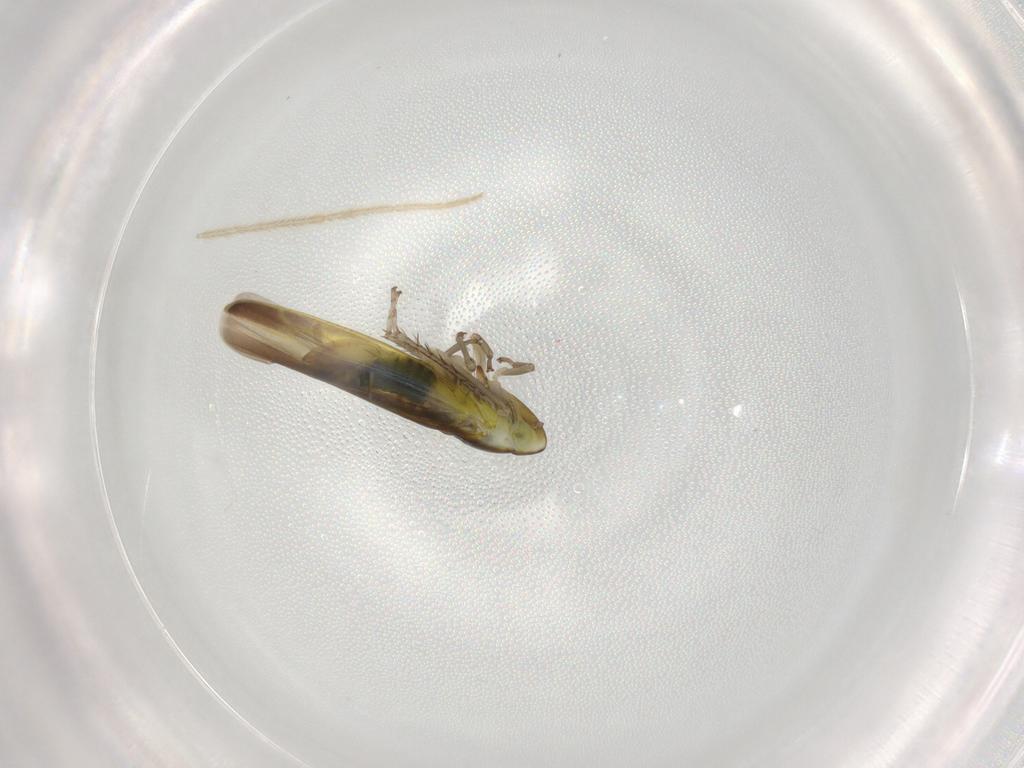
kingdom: Animalia
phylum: Arthropoda
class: Insecta
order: Hemiptera
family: Cicadellidae
